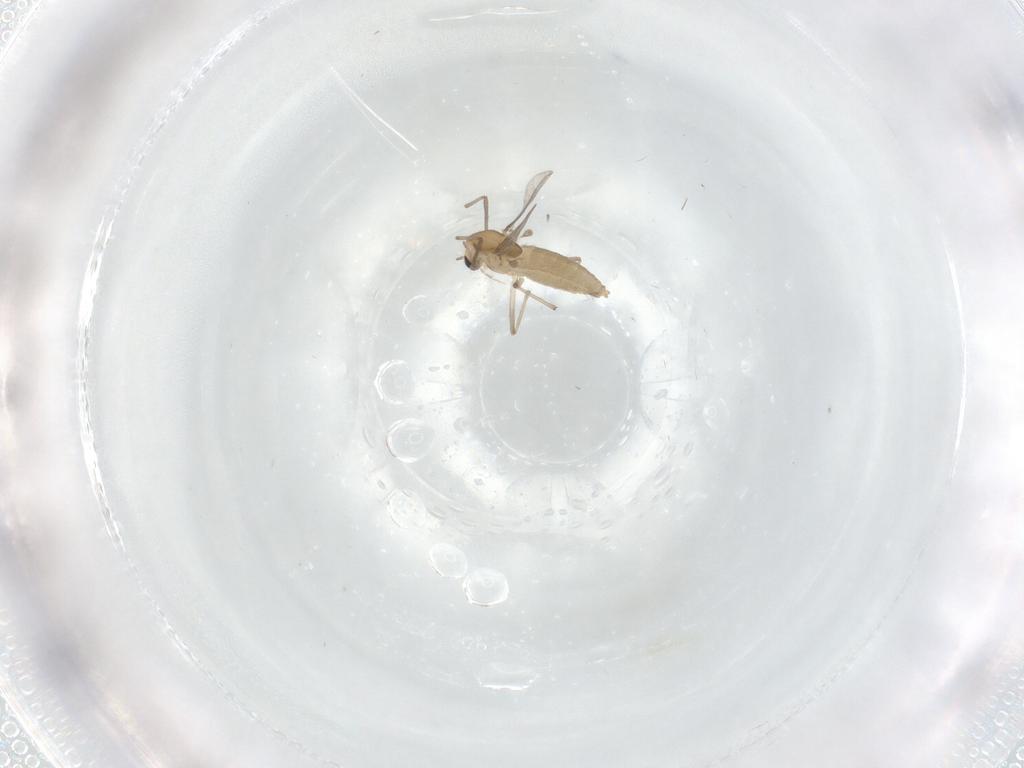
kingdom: Animalia
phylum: Arthropoda
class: Insecta
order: Diptera
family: Chironomidae
